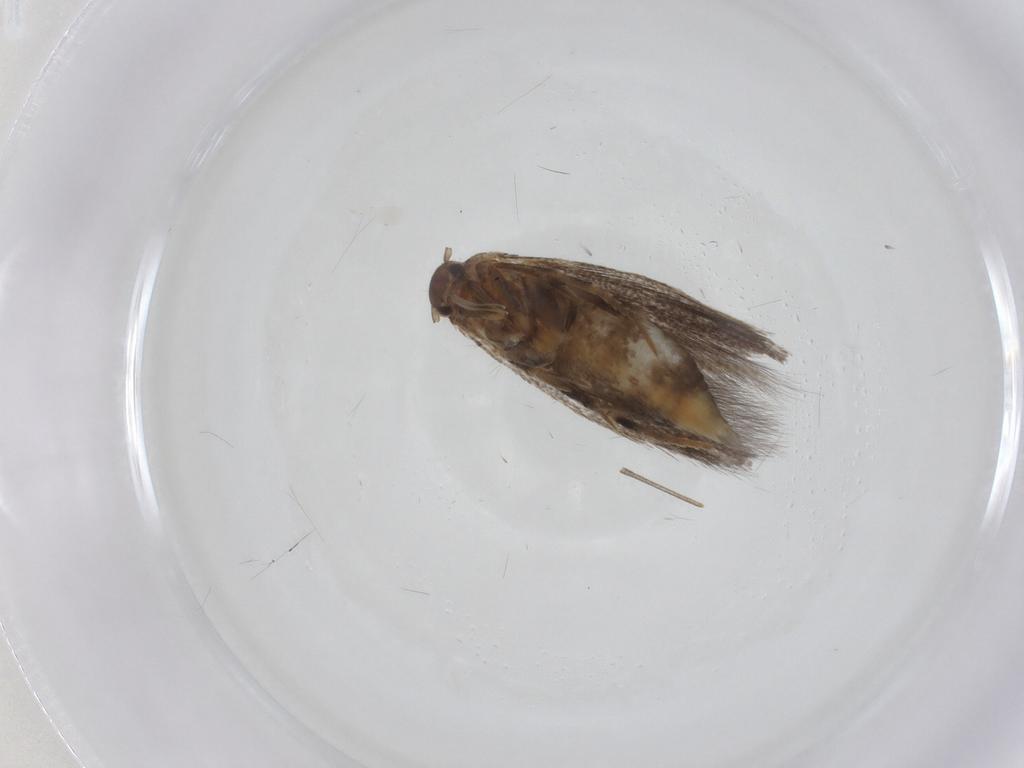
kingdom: Animalia
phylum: Arthropoda
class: Insecta
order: Lepidoptera
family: Elachistidae
